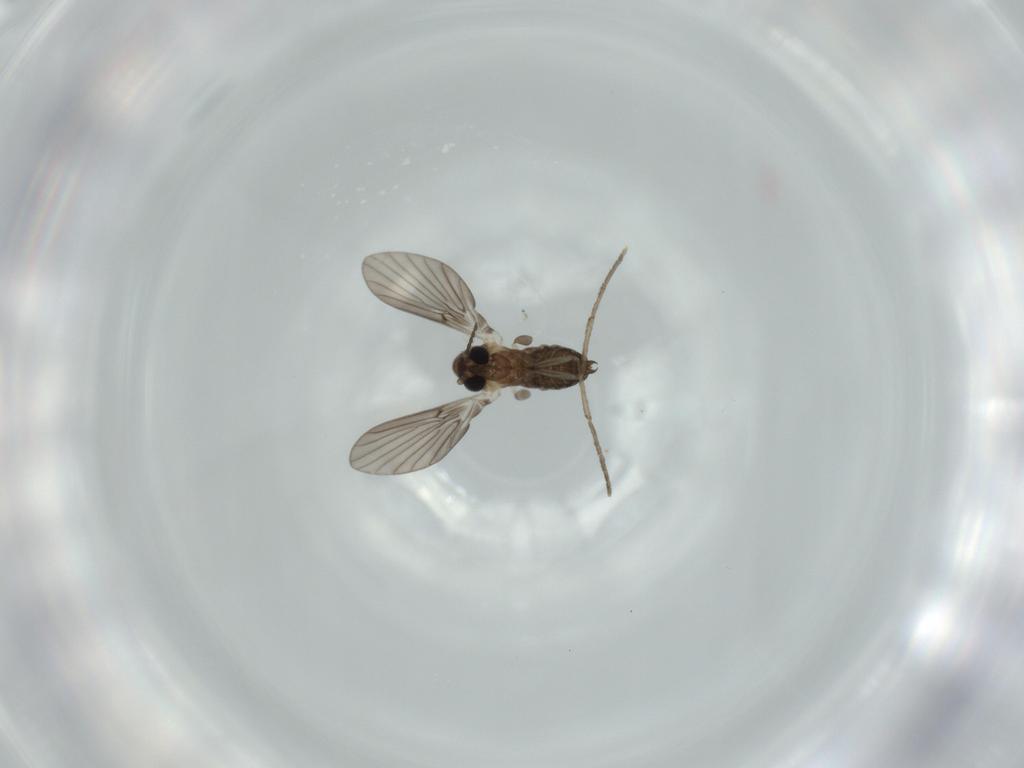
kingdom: Animalia
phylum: Arthropoda
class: Insecta
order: Diptera
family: Psychodidae
